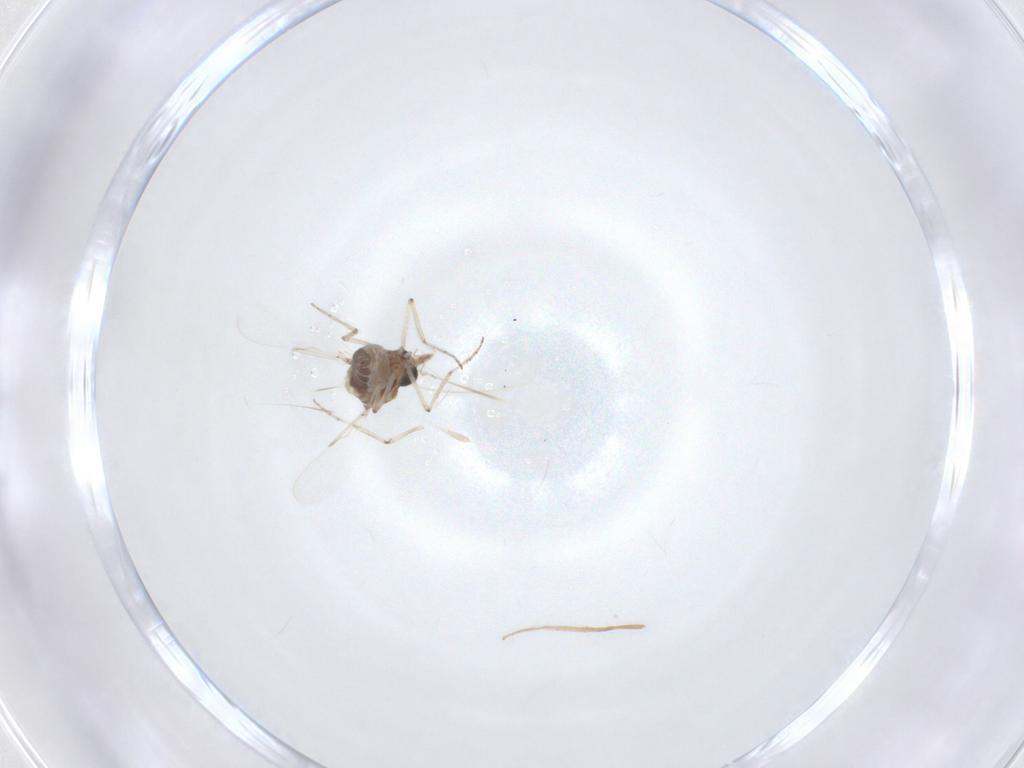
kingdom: Animalia
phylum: Arthropoda
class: Insecta
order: Diptera
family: Ceratopogonidae
